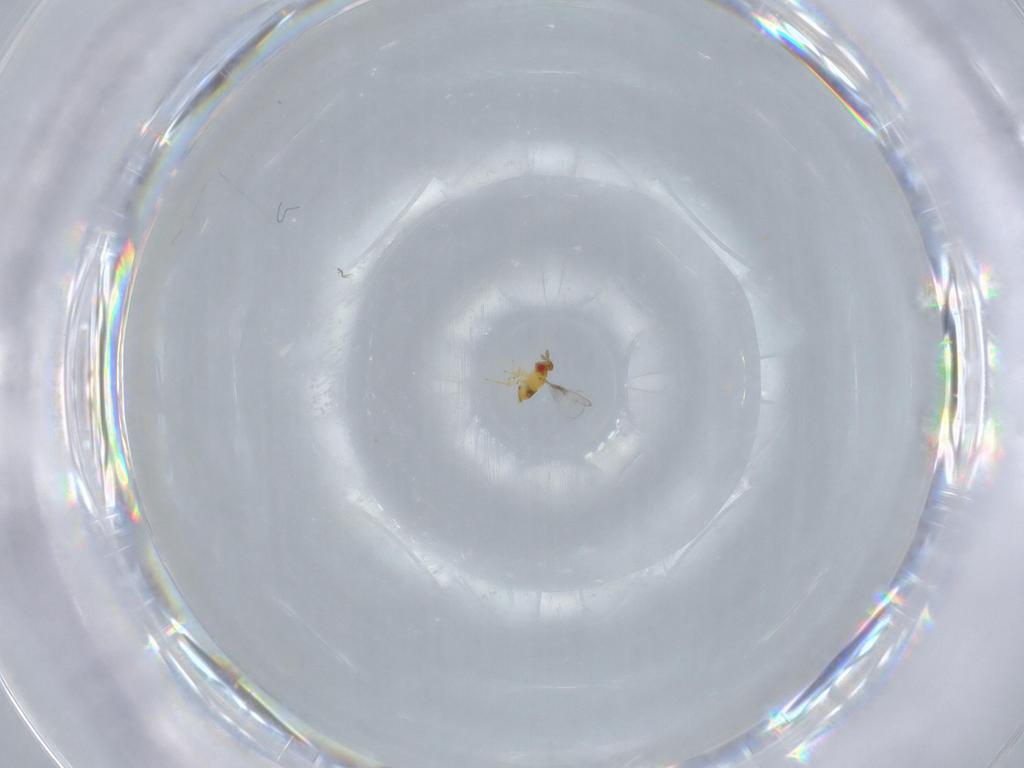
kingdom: Animalia
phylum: Arthropoda
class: Insecta
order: Hymenoptera
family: Trichogrammatidae
